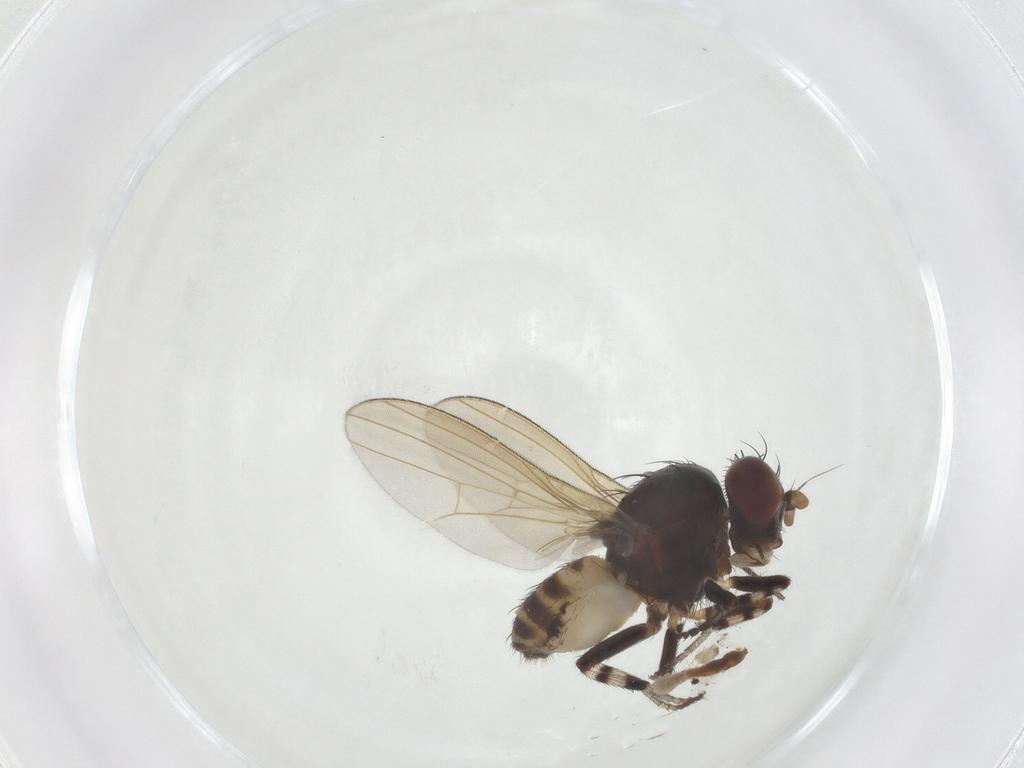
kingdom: Animalia
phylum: Arthropoda
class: Insecta
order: Diptera
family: Lauxaniidae
